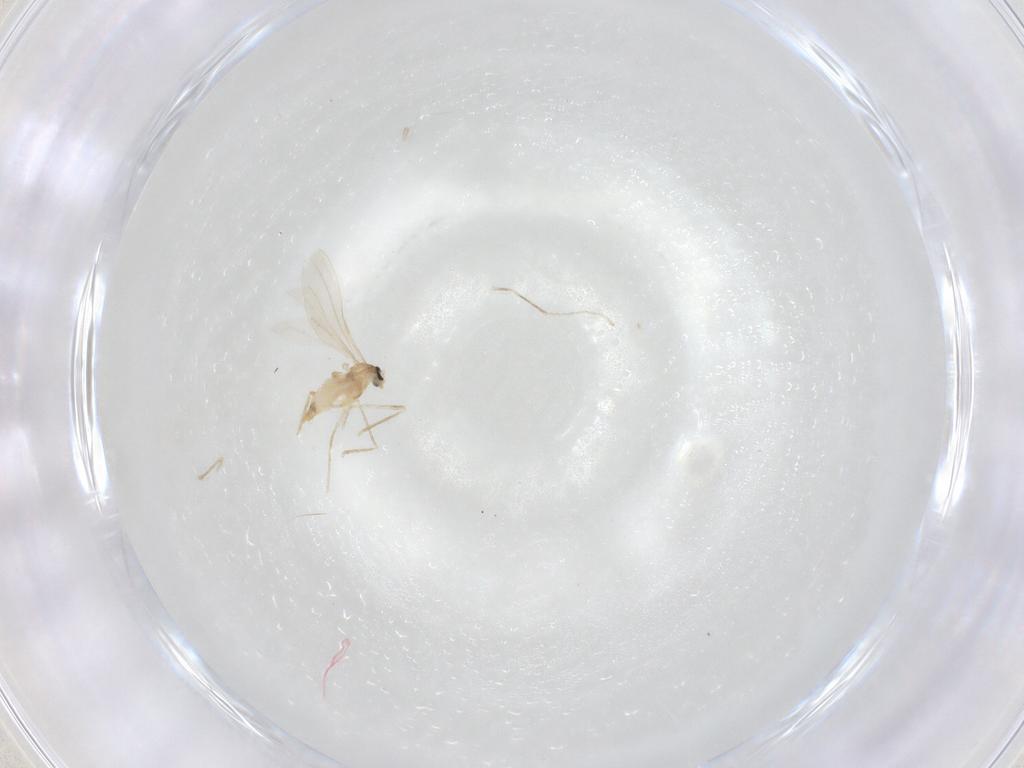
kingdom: Animalia
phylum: Arthropoda
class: Insecta
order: Diptera
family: Cecidomyiidae
